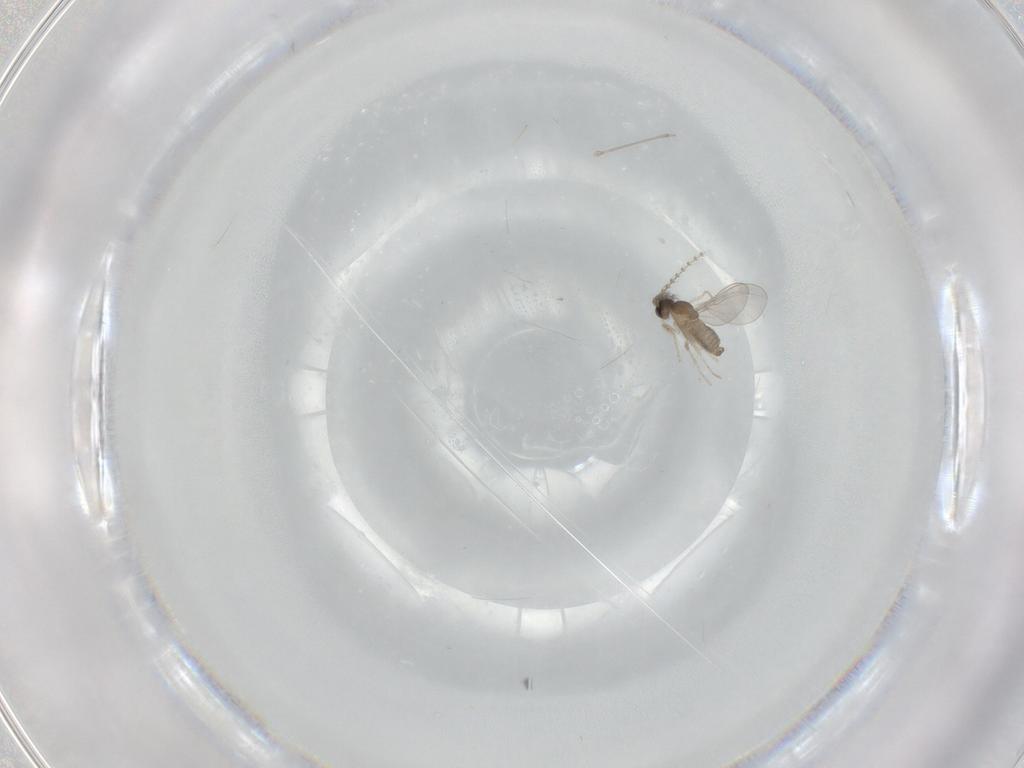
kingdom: Animalia
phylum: Arthropoda
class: Insecta
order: Diptera
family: Cecidomyiidae
